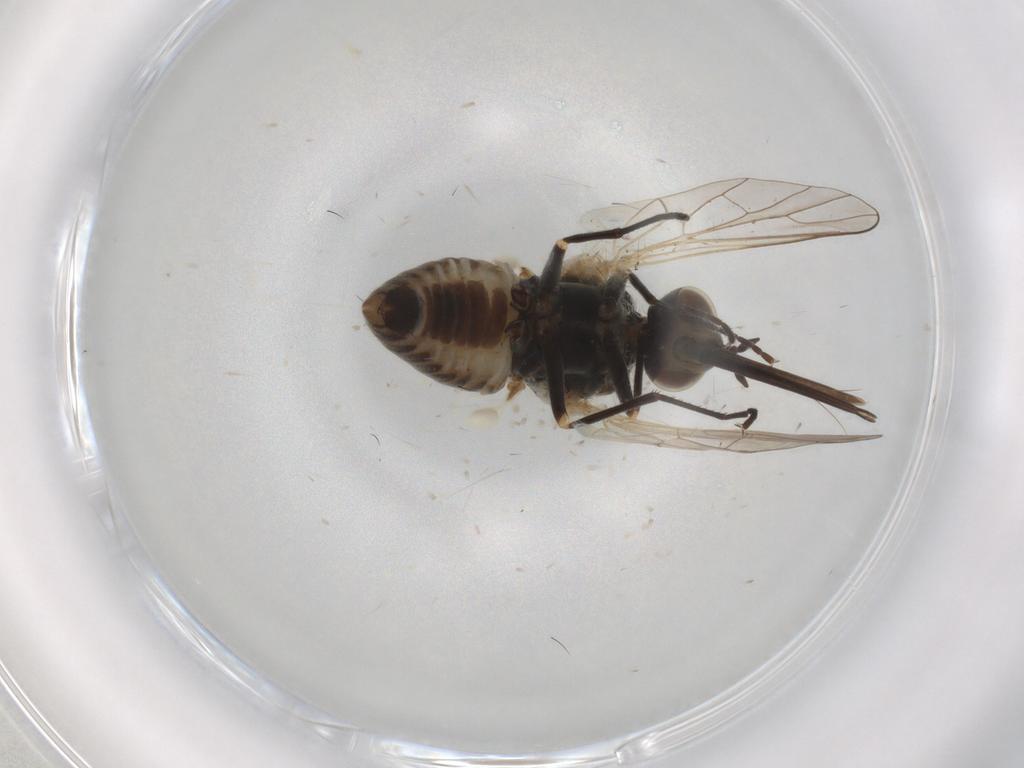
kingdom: Animalia
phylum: Arthropoda
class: Insecta
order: Diptera
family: Bombyliidae
